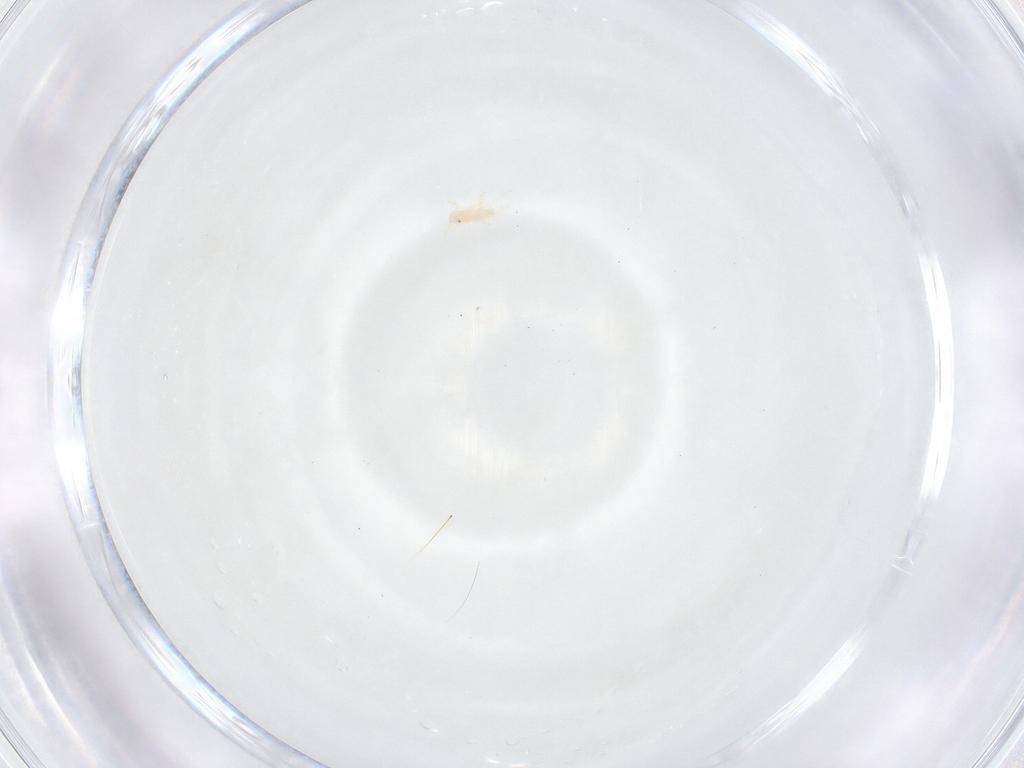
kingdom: Animalia
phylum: Arthropoda
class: Insecta
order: Hemiptera
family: Aphididae
